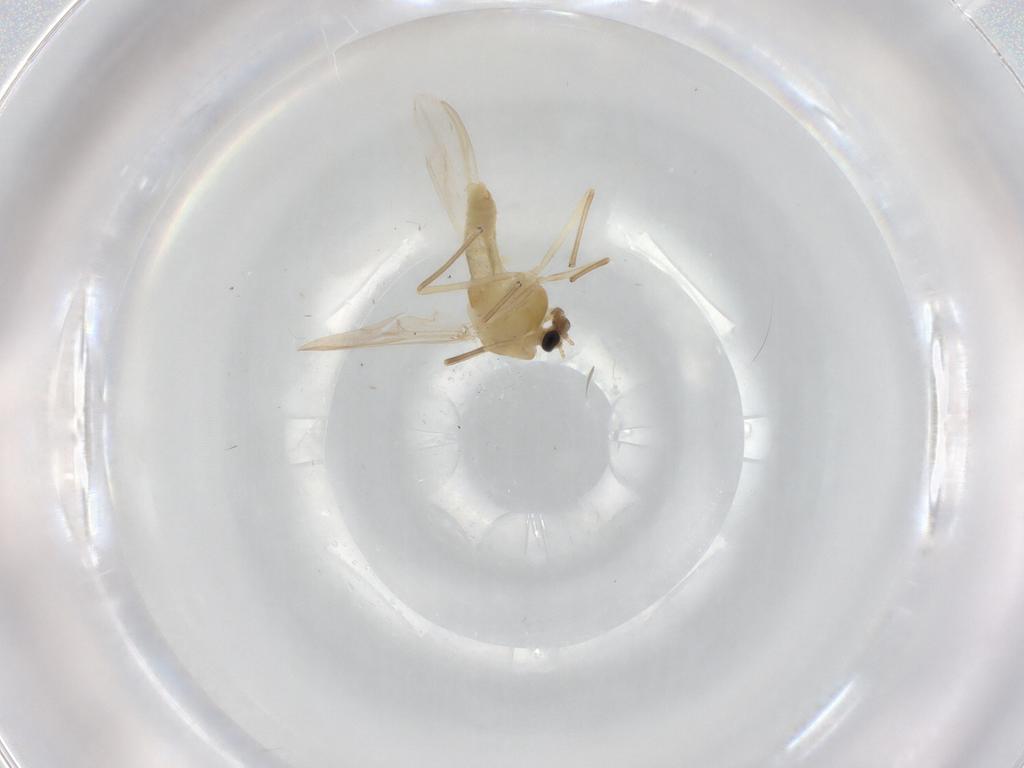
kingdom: Animalia
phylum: Arthropoda
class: Insecta
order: Diptera
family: Chironomidae
